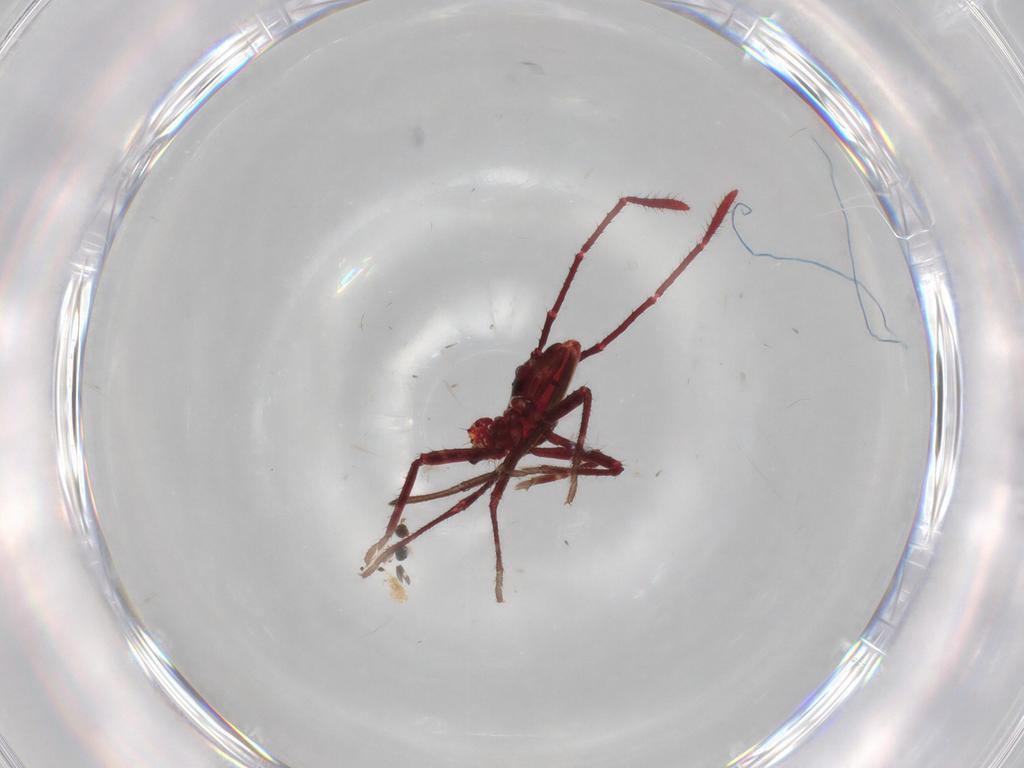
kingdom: Animalia
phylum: Arthropoda
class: Insecta
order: Hemiptera
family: Coreidae
